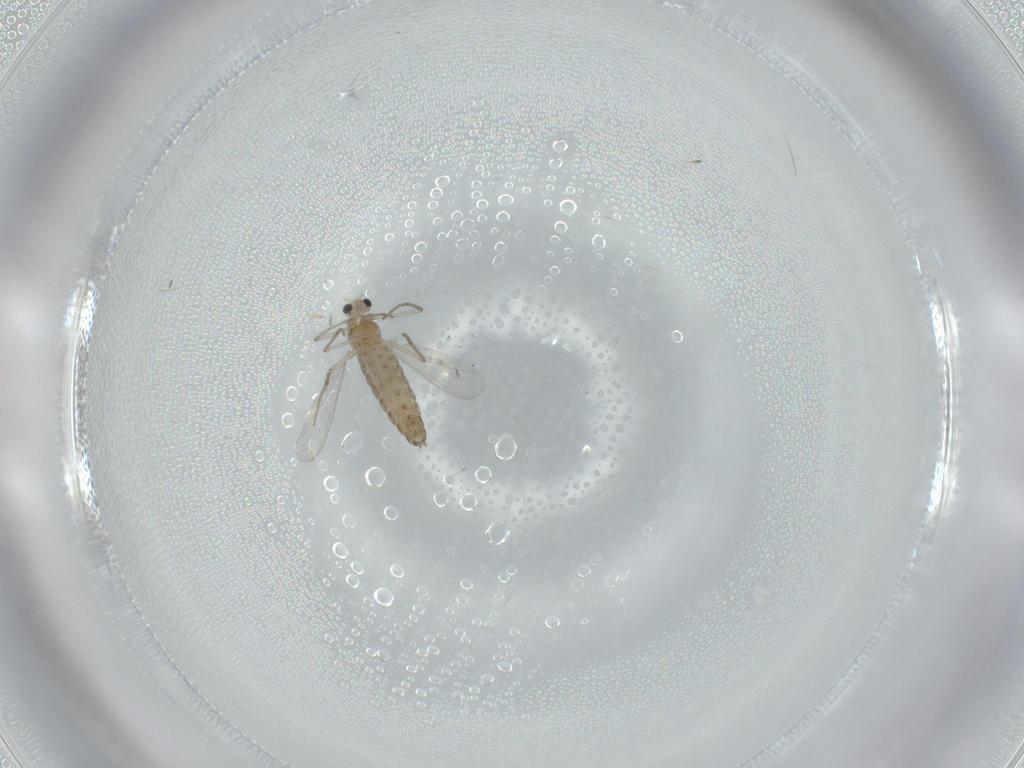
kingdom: Animalia
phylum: Arthropoda
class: Insecta
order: Diptera
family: Chironomidae
